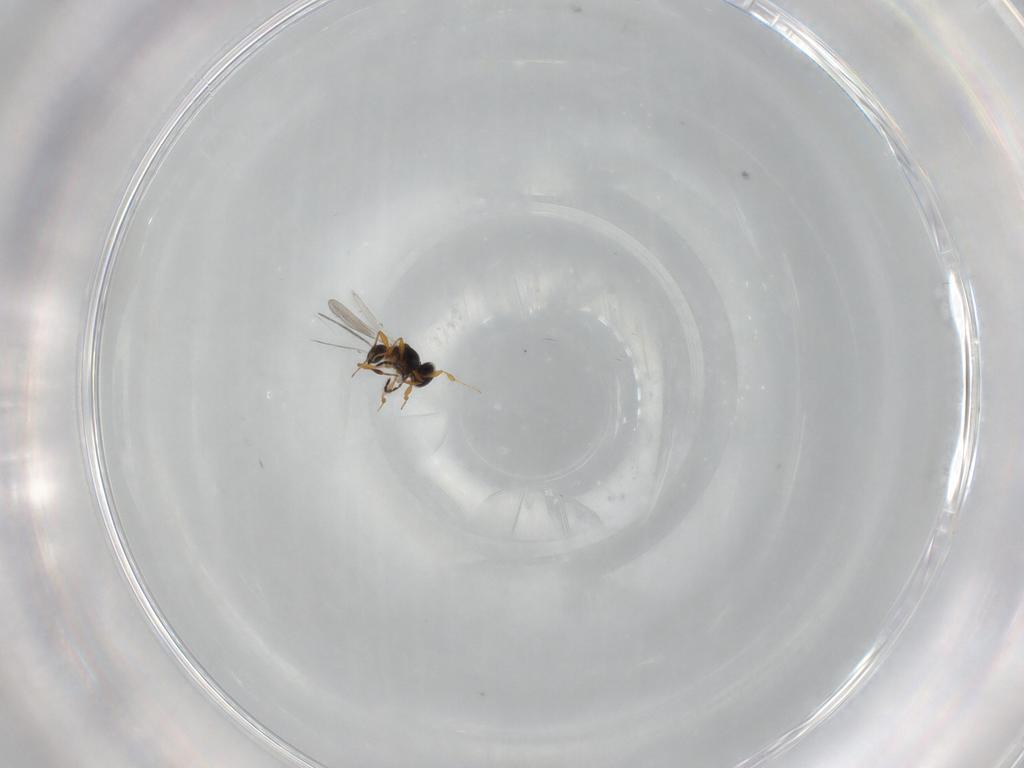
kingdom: Animalia
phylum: Arthropoda
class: Insecta
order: Hymenoptera
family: Platygastridae
